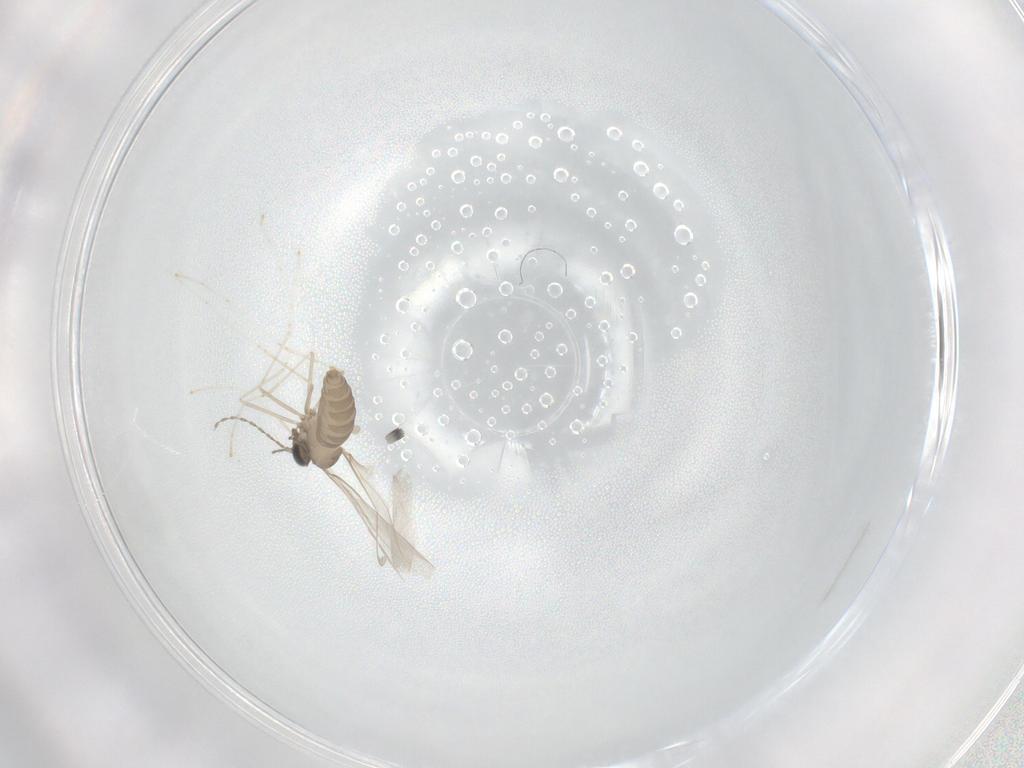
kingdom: Animalia
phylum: Arthropoda
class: Insecta
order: Diptera
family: Cecidomyiidae
